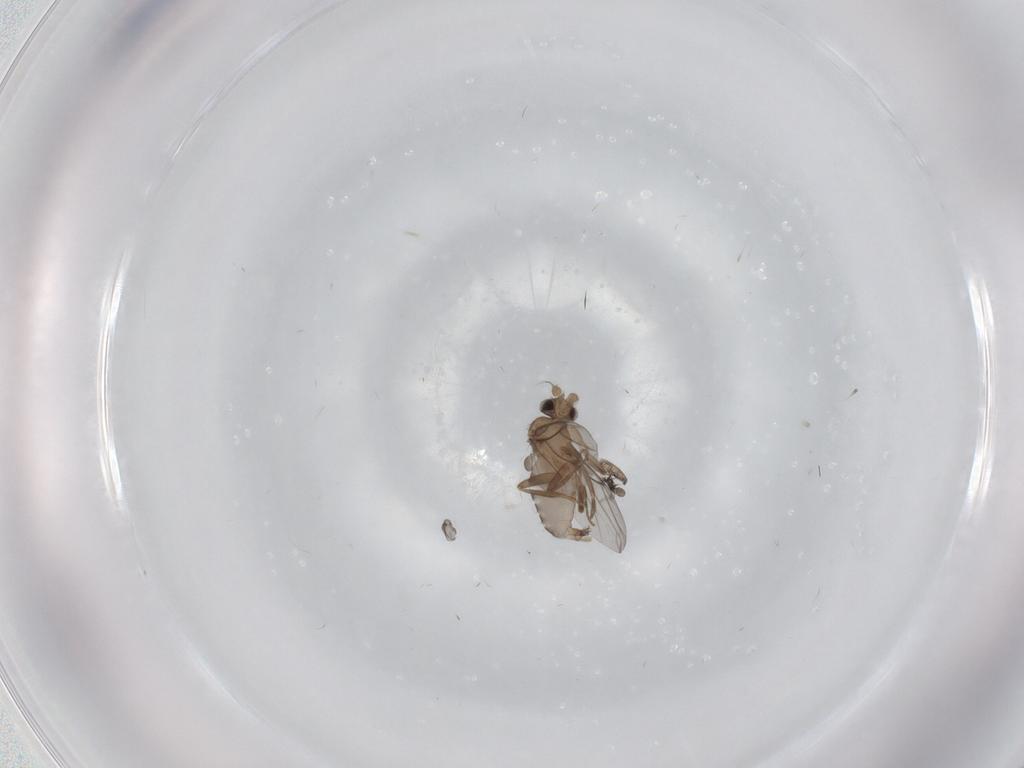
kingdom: Animalia
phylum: Arthropoda
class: Insecta
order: Diptera
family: Ceratopogonidae
